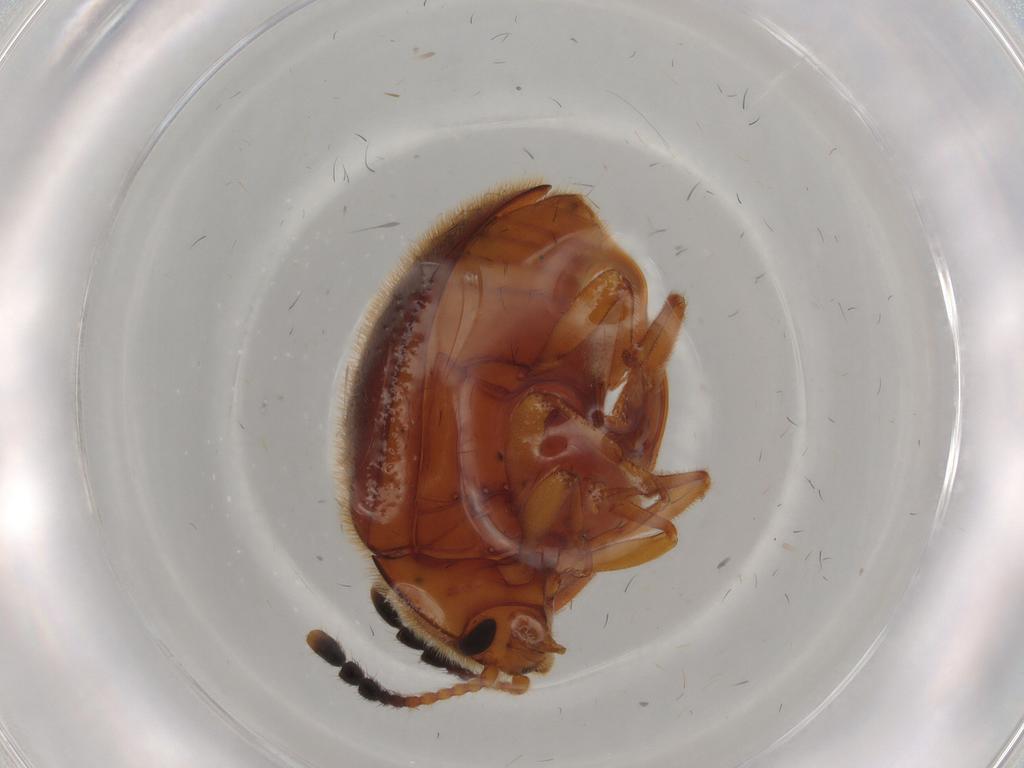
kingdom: Animalia
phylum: Arthropoda
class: Insecta
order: Coleoptera
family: Endomychidae
